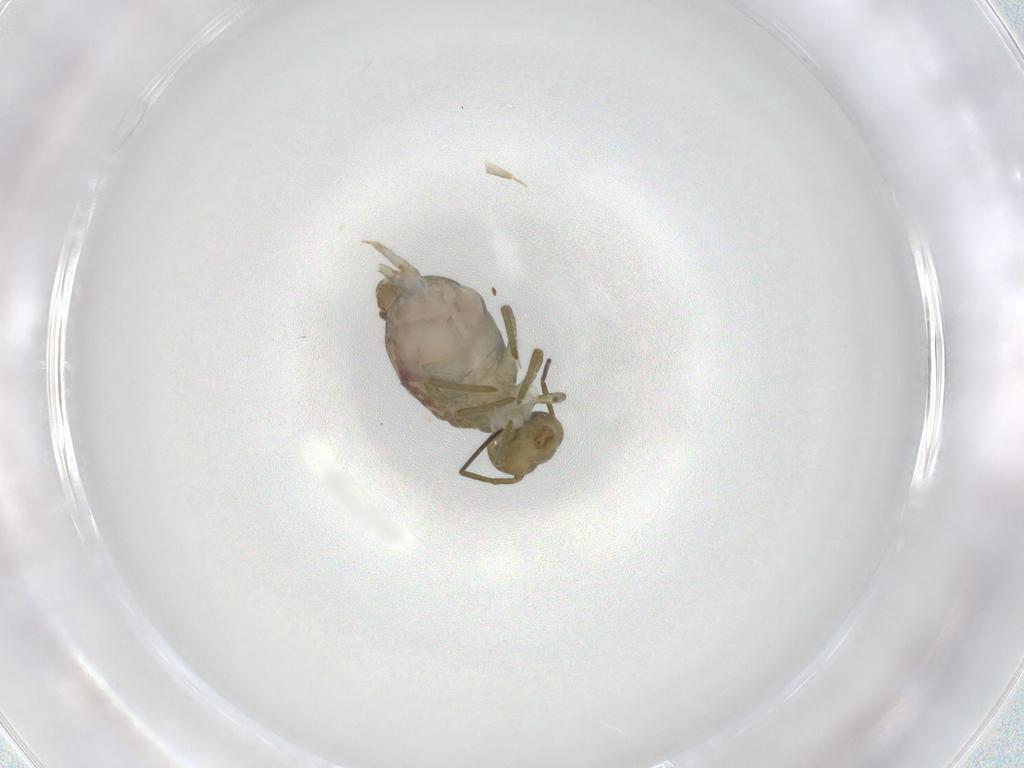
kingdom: Animalia
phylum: Arthropoda
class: Collembola
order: Symphypleona
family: Sminthuridae
